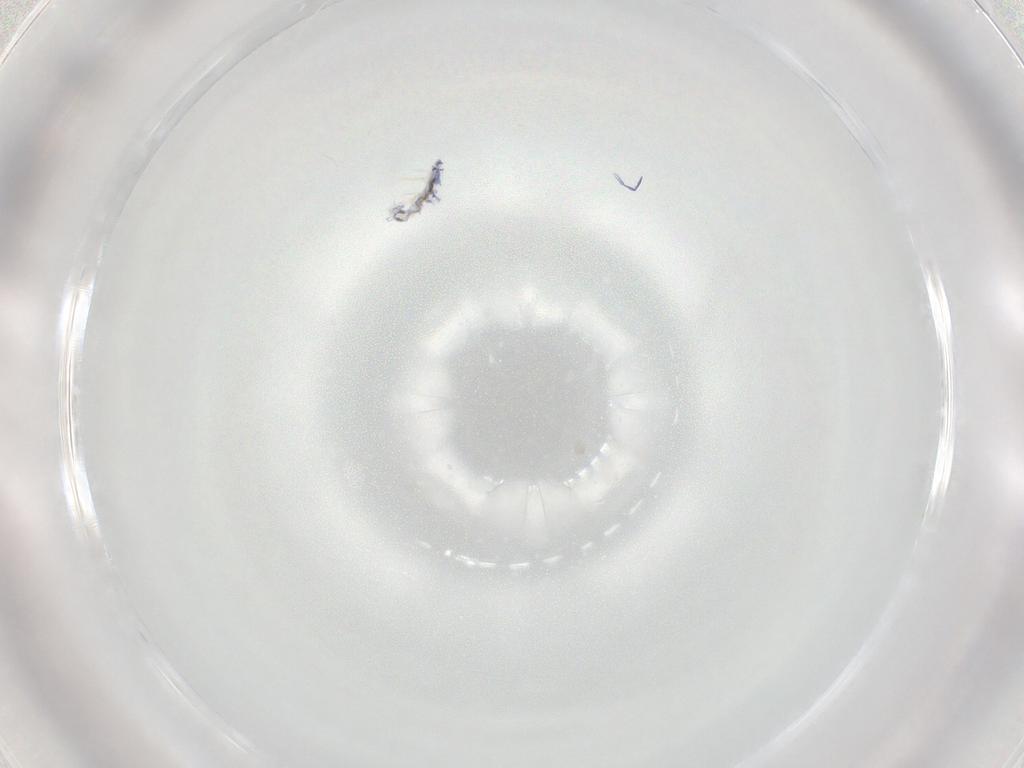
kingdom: Animalia
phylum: Arthropoda
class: Collembola
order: Entomobryomorpha
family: Entomobryidae
